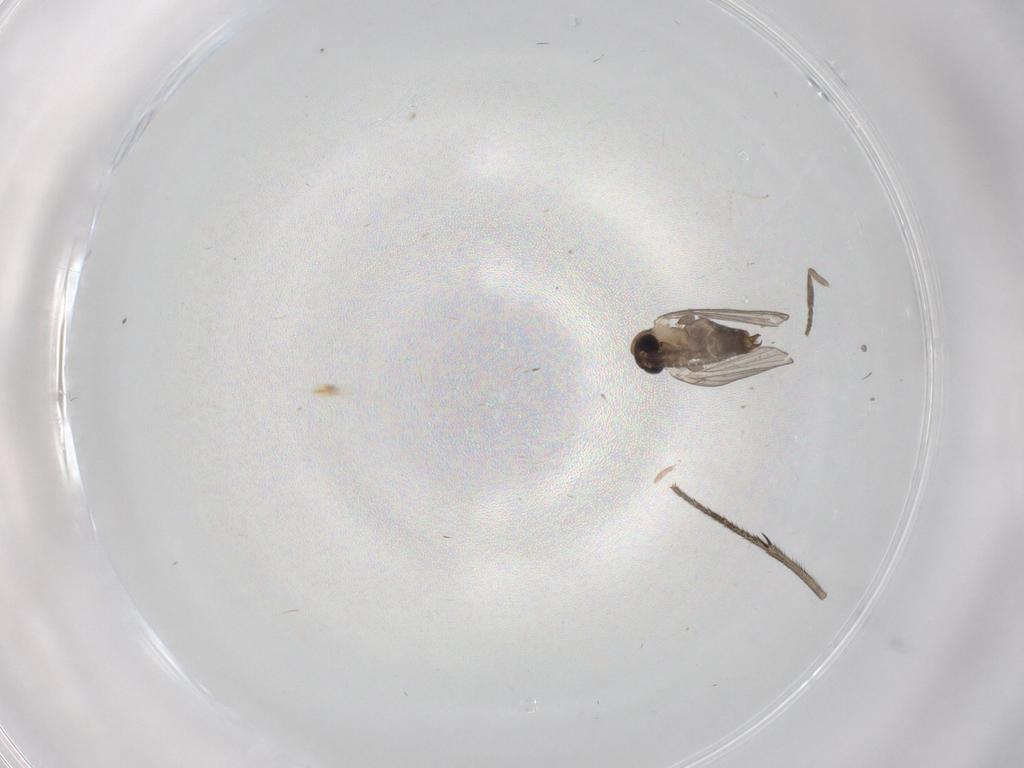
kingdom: Animalia
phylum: Arthropoda
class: Insecta
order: Diptera
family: Cecidomyiidae
